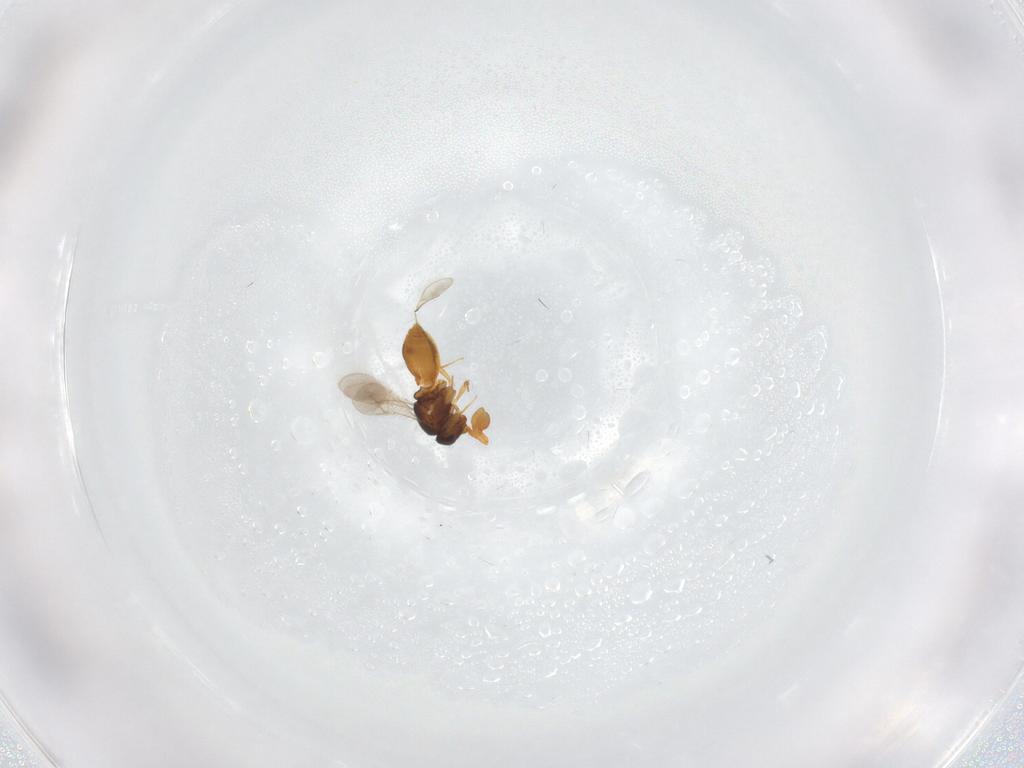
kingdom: Animalia
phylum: Arthropoda
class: Insecta
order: Hymenoptera
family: Scelionidae
